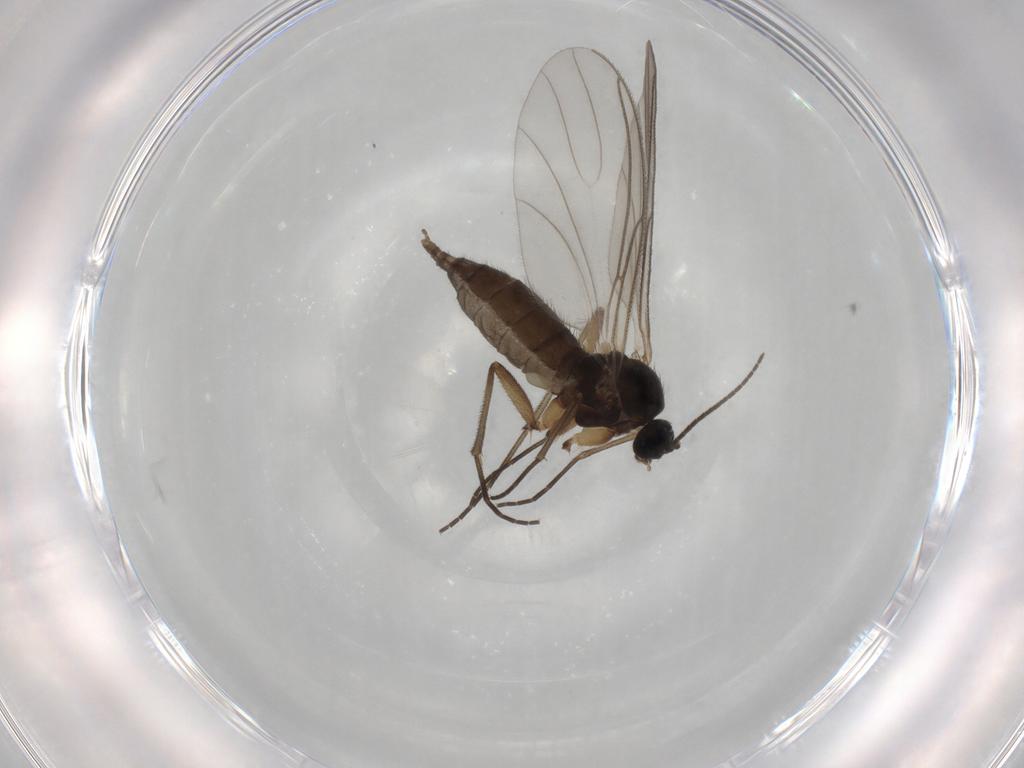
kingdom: Animalia
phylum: Arthropoda
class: Insecta
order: Diptera
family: Sciaridae
